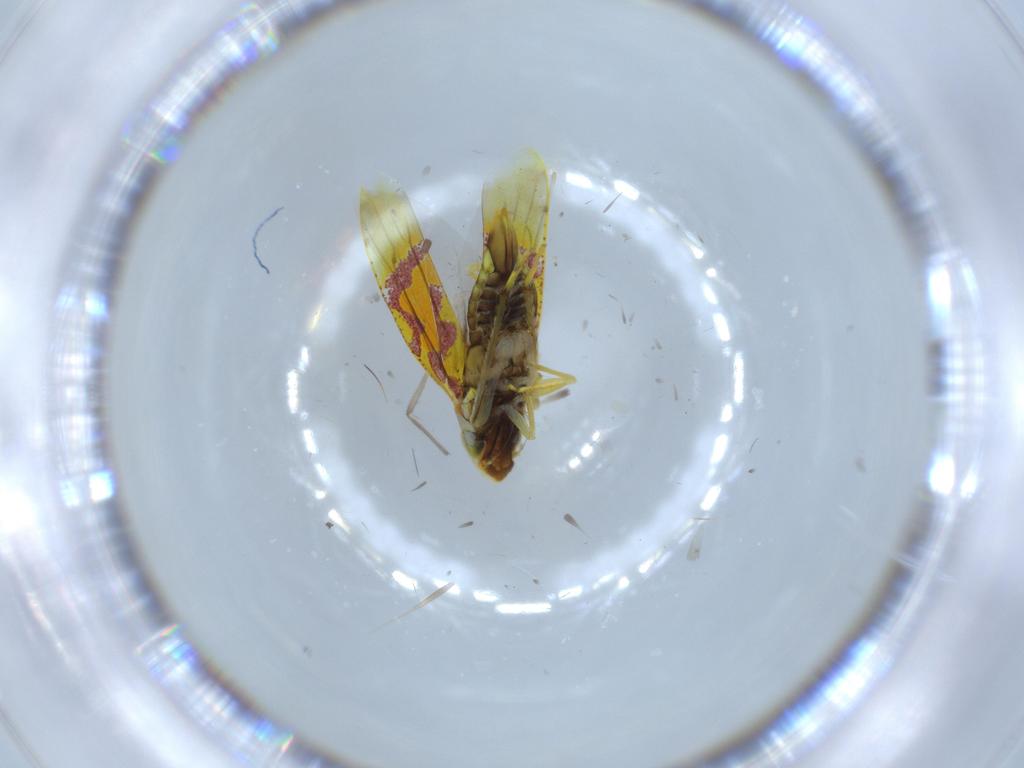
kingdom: Animalia
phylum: Arthropoda
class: Insecta
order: Hemiptera
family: Cicadellidae
